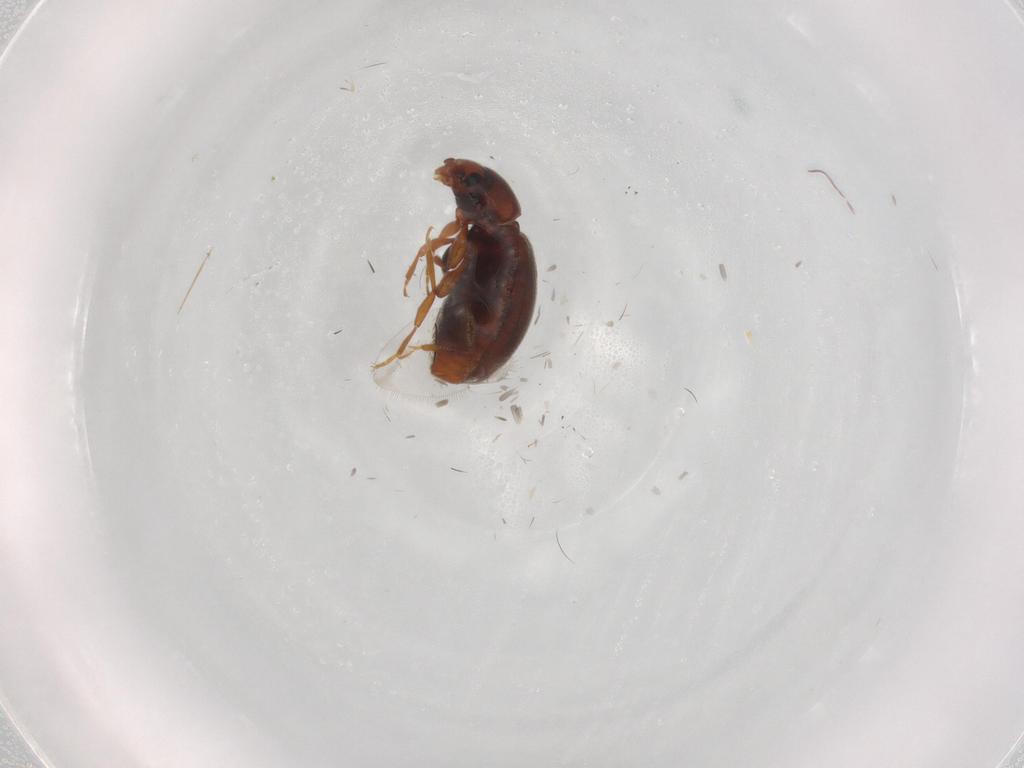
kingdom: Animalia
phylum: Arthropoda
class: Insecta
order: Coleoptera
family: Latridiidae
